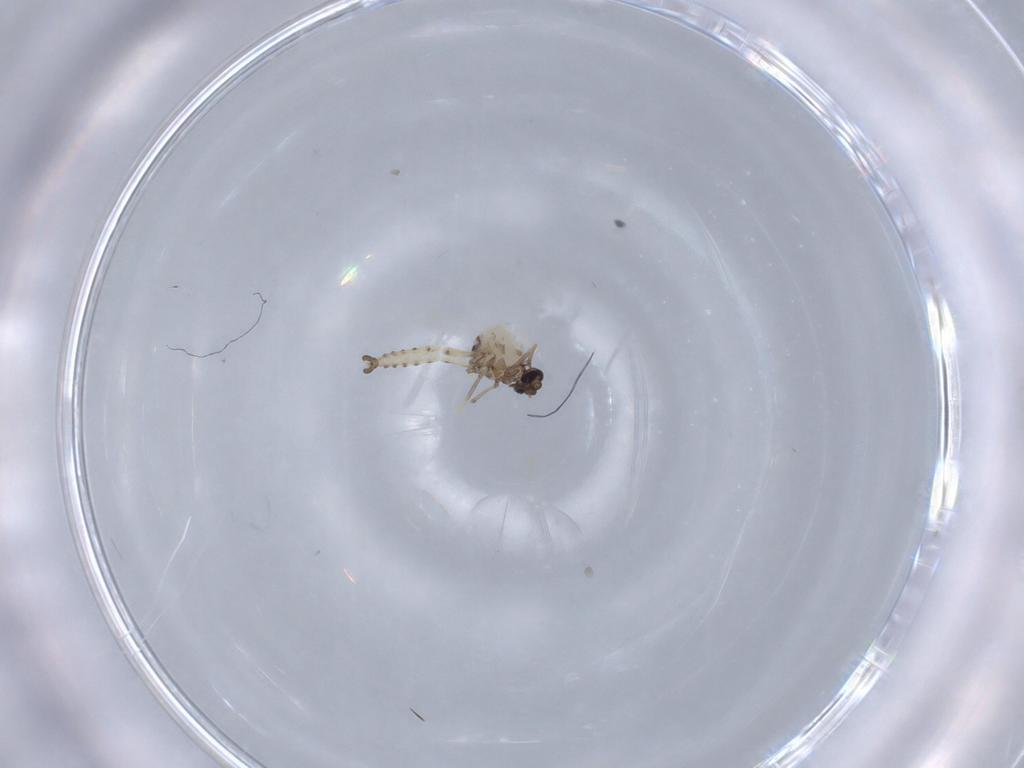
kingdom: Animalia
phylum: Arthropoda
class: Insecta
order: Diptera
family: Ceratopogonidae
